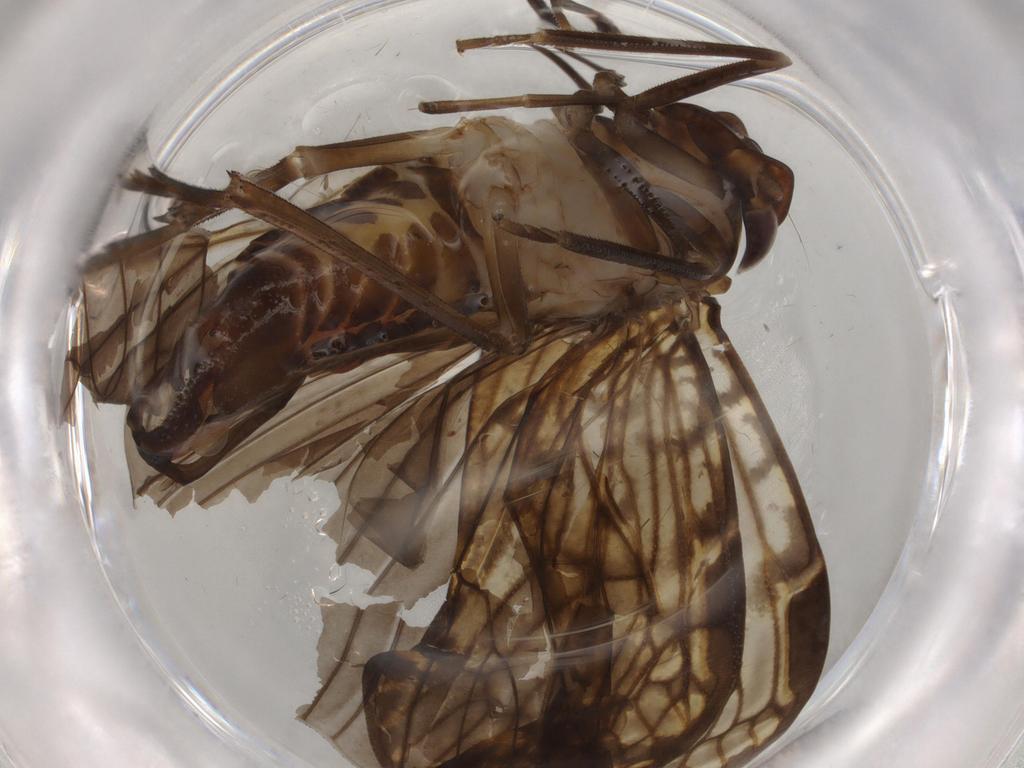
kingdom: Animalia
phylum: Arthropoda
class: Insecta
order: Hemiptera
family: Cixiidae
